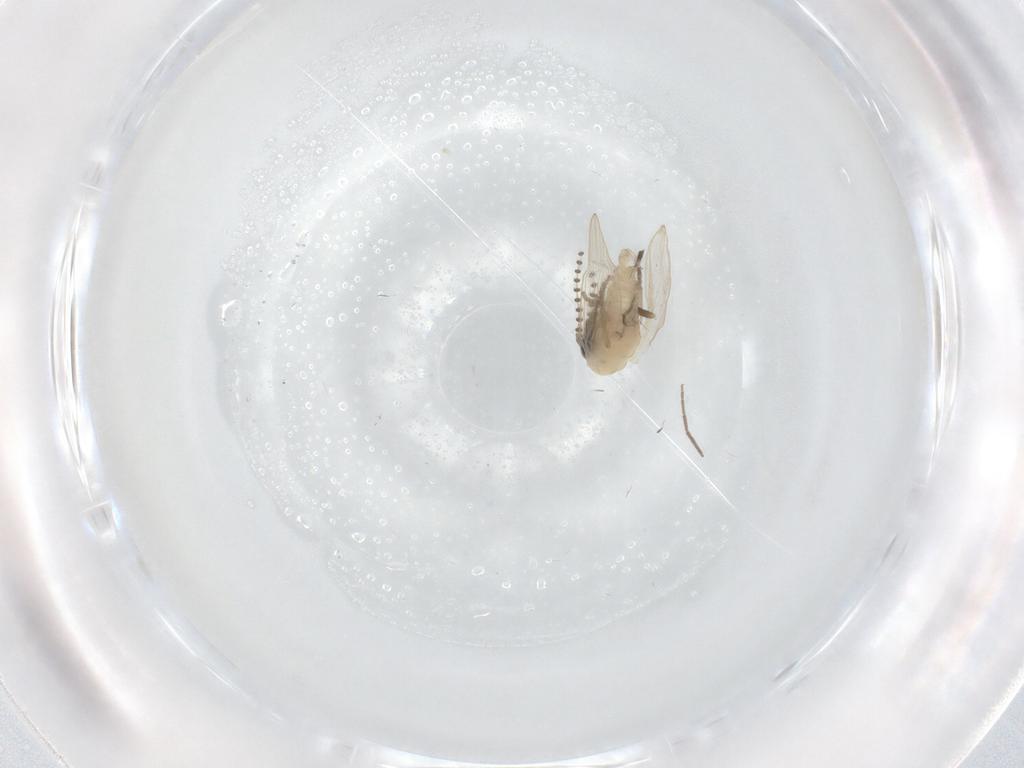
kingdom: Animalia
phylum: Arthropoda
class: Insecta
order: Diptera
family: Psychodidae
